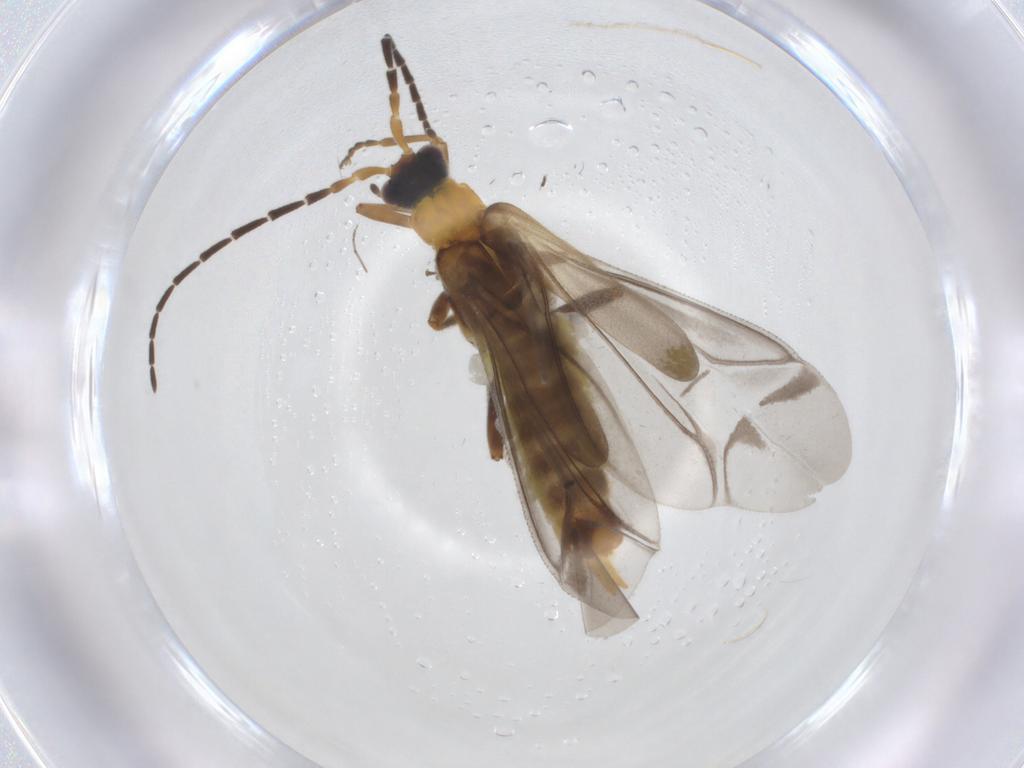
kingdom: Animalia
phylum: Arthropoda
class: Insecta
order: Coleoptera
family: Cantharidae
